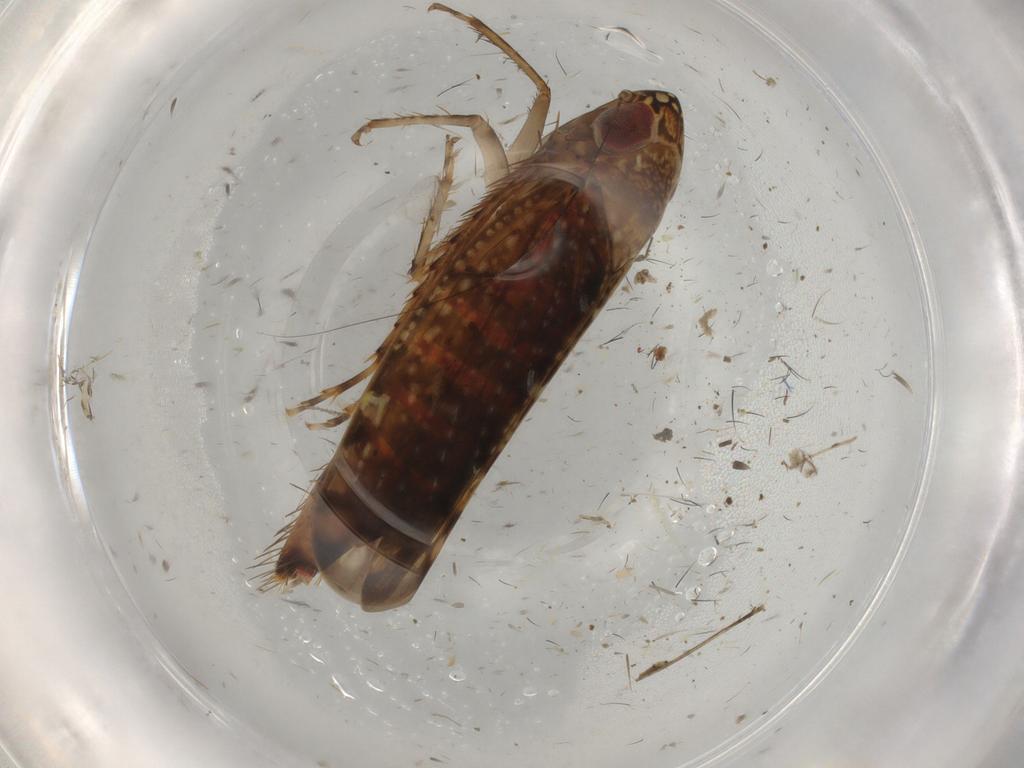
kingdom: Animalia
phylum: Arthropoda
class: Insecta
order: Hemiptera
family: Cicadellidae
